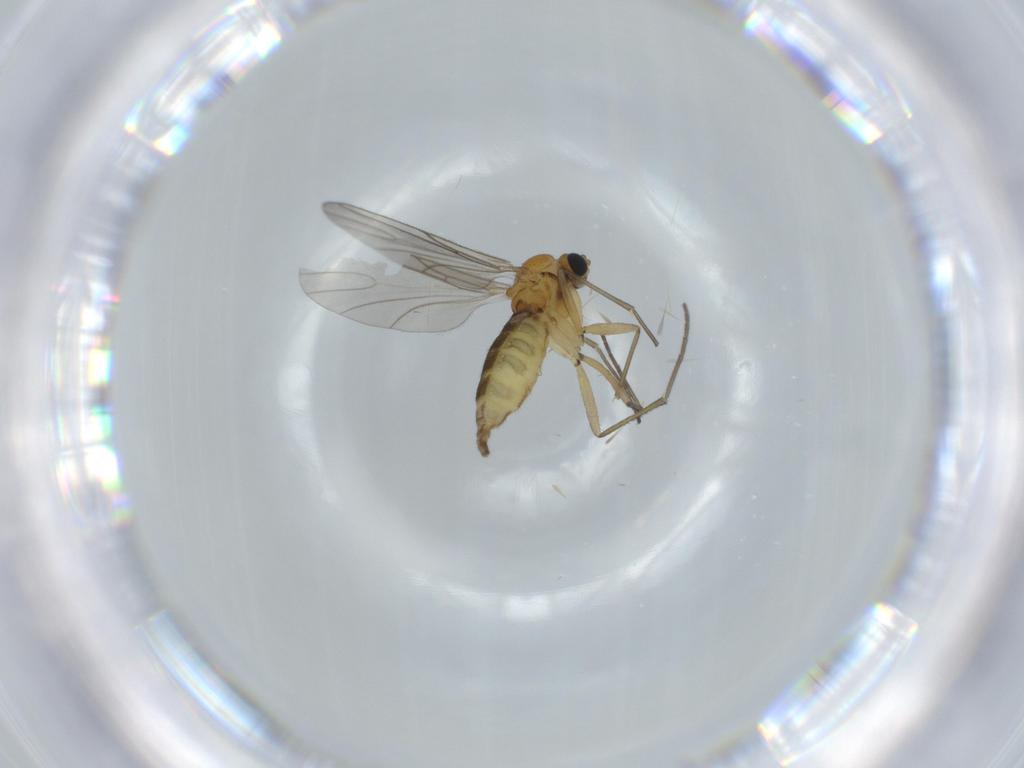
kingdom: Animalia
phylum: Arthropoda
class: Insecta
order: Diptera
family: Sciaridae
